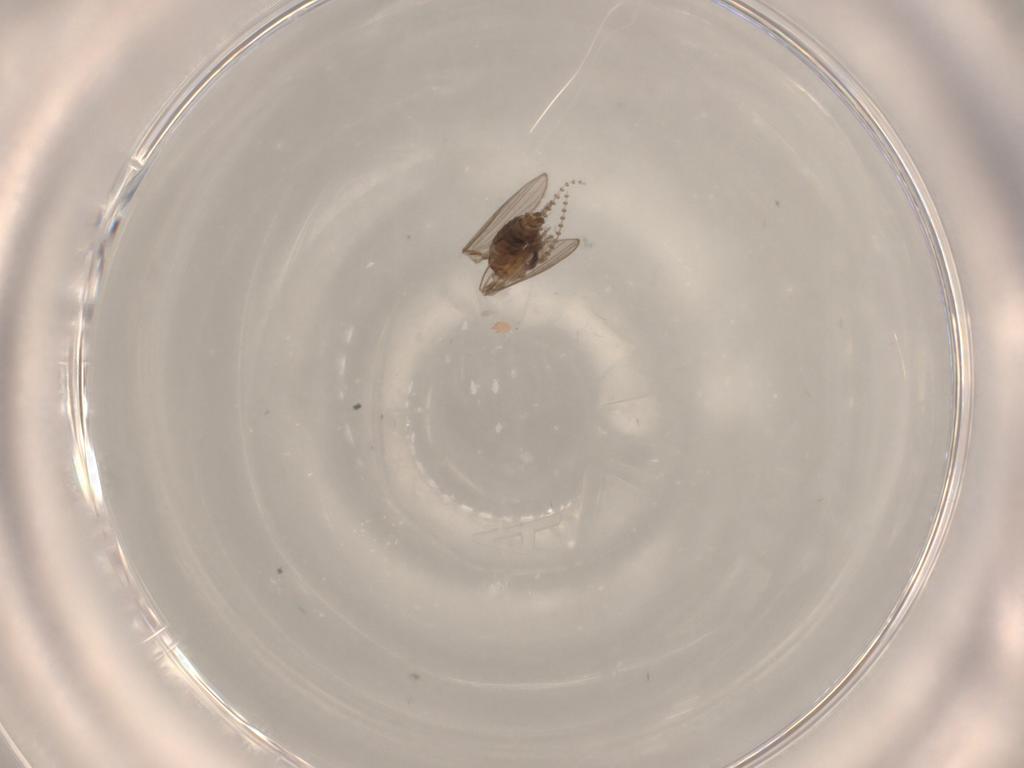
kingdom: Animalia
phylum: Arthropoda
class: Insecta
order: Diptera
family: Psychodidae
